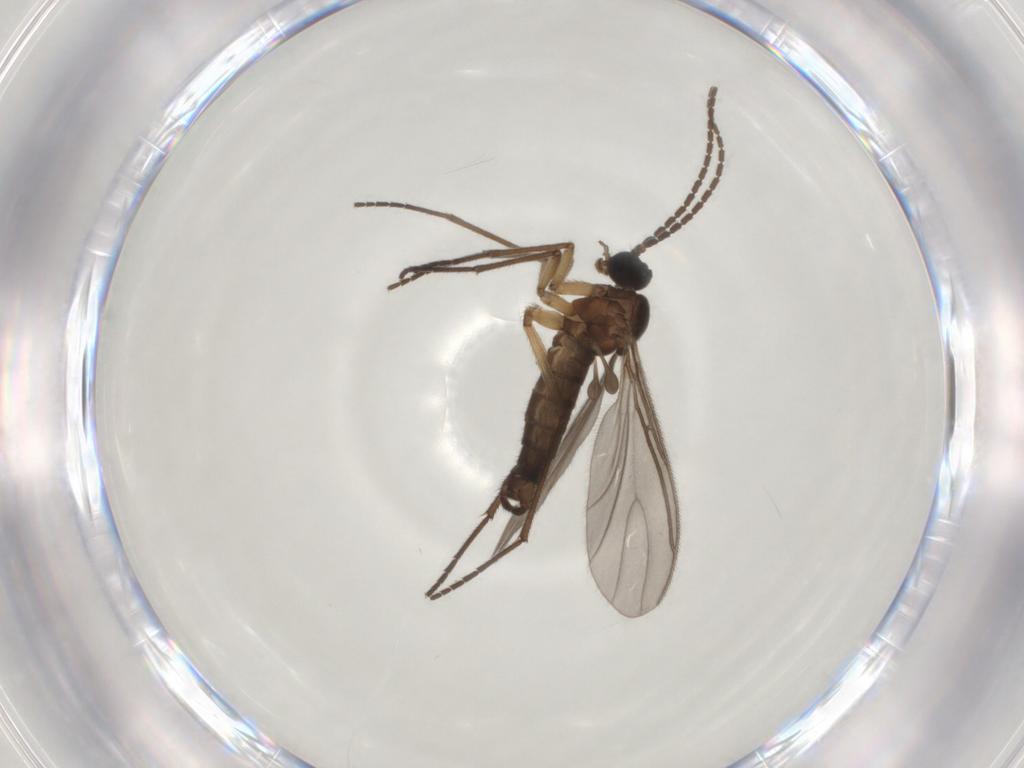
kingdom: Animalia
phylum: Arthropoda
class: Insecta
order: Diptera
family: Sciaridae
